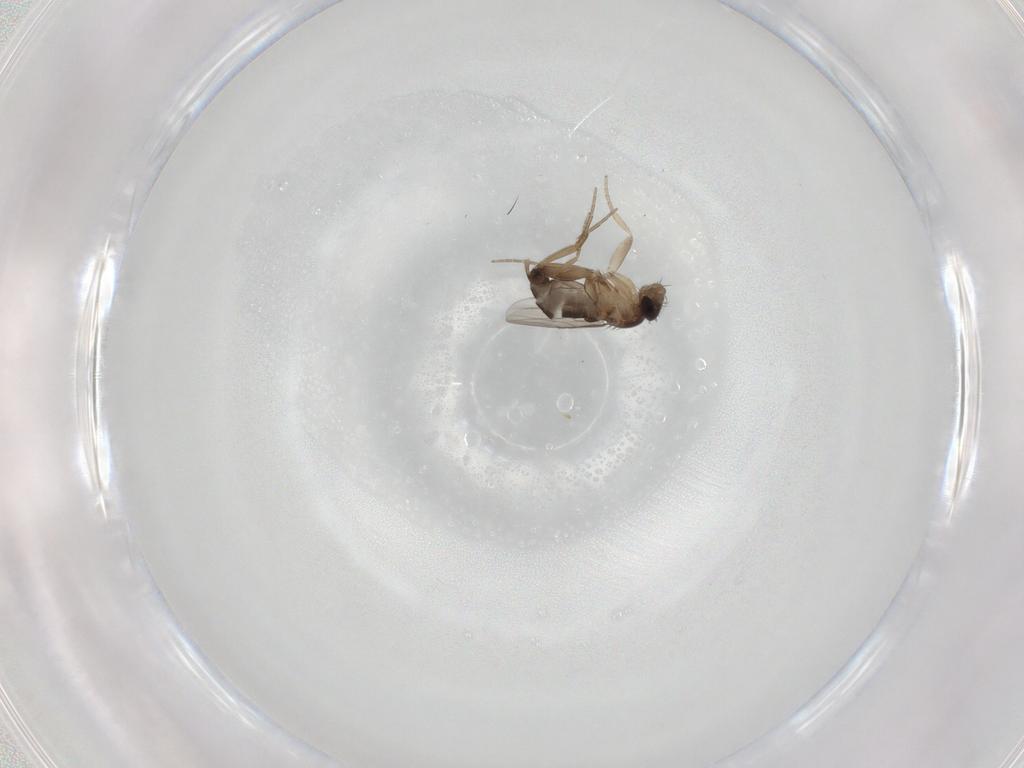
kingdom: Animalia
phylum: Arthropoda
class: Insecta
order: Diptera
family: Phoridae
